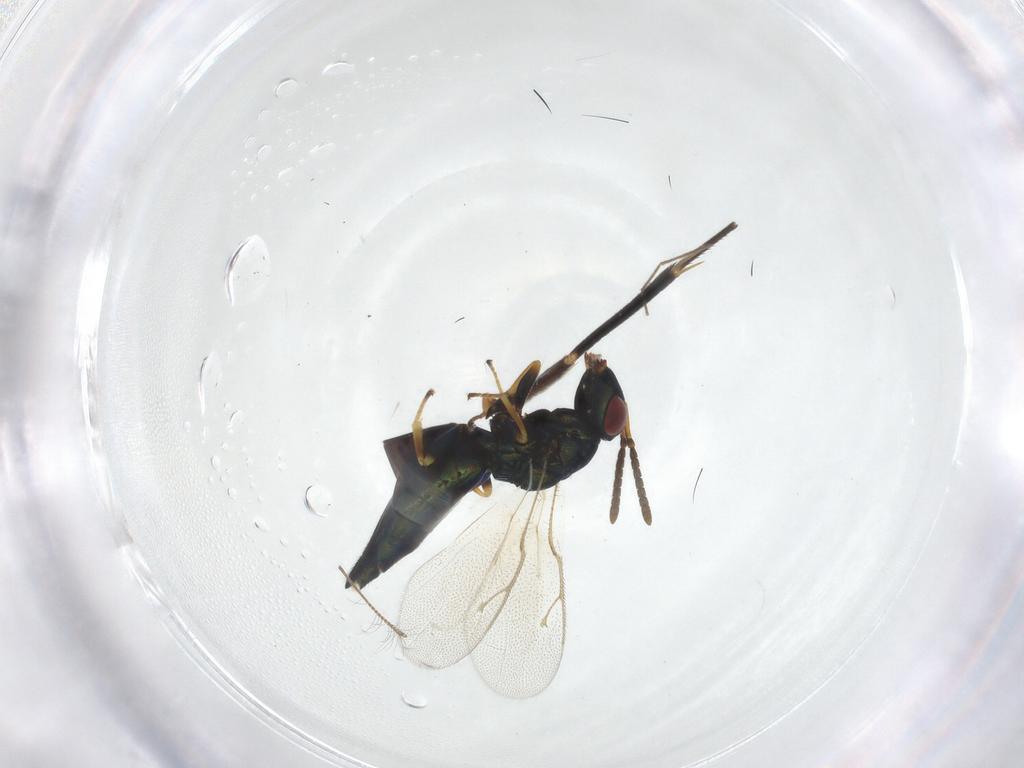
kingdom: Animalia
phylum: Arthropoda
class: Insecta
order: Hymenoptera
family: Pteromalidae
